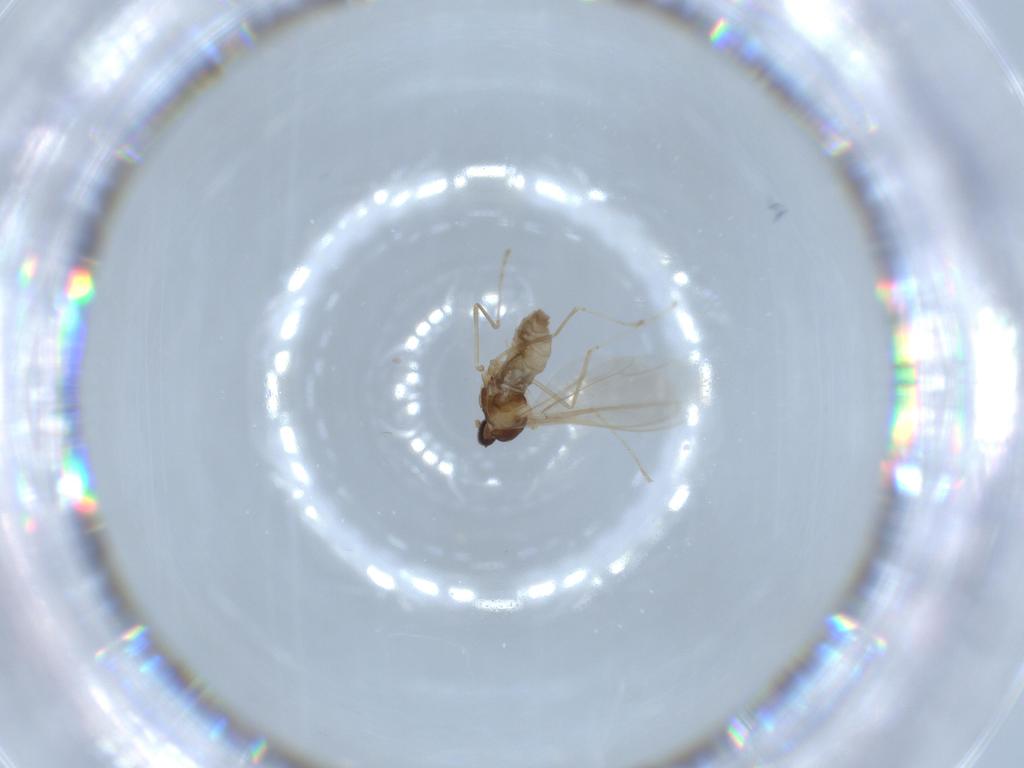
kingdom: Animalia
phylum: Arthropoda
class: Insecta
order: Diptera
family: Cecidomyiidae
